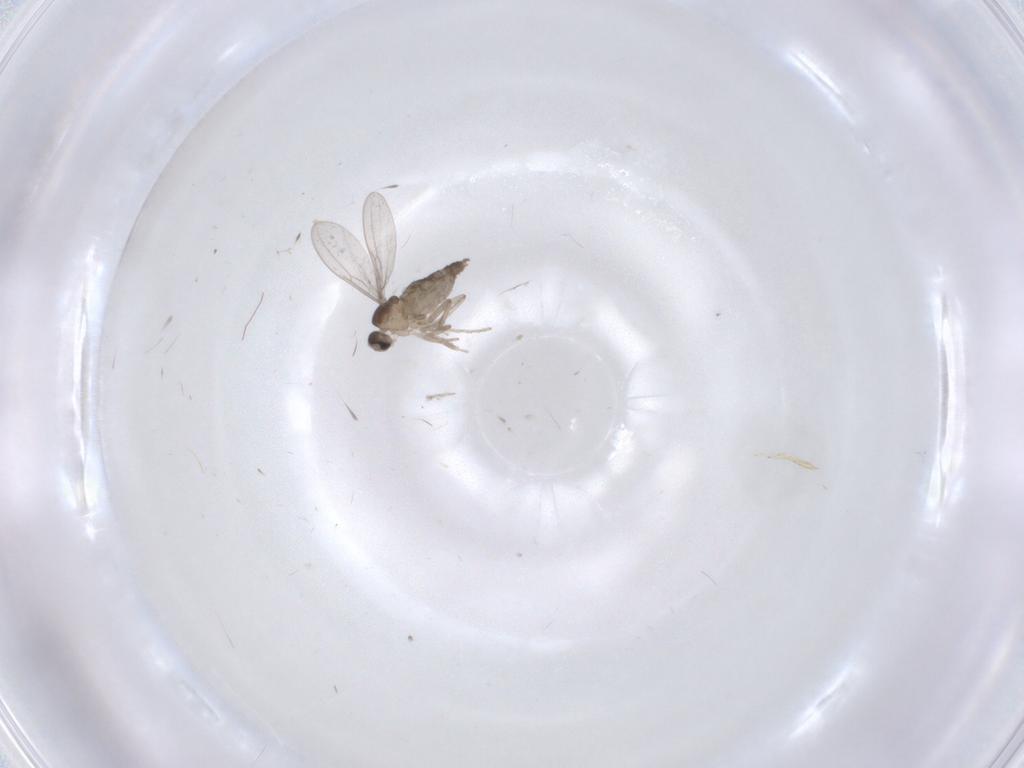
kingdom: Animalia
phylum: Arthropoda
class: Insecta
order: Diptera
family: Cecidomyiidae
